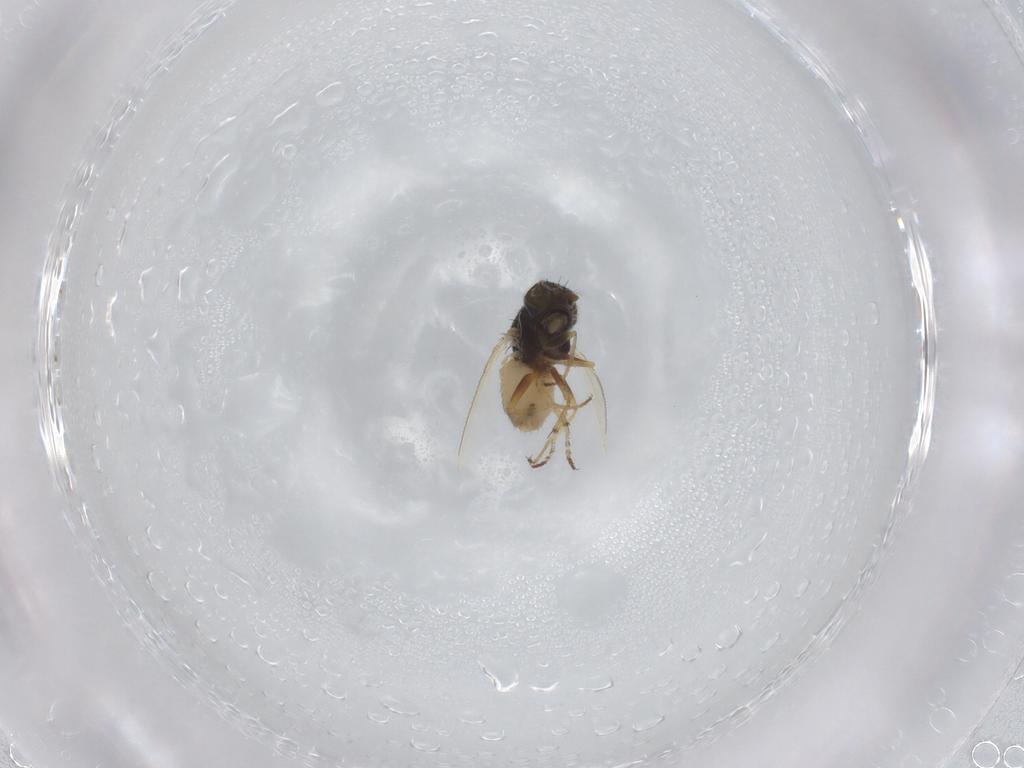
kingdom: Animalia
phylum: Arthropoda
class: Insecta
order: Diptera
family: Ephydridae
